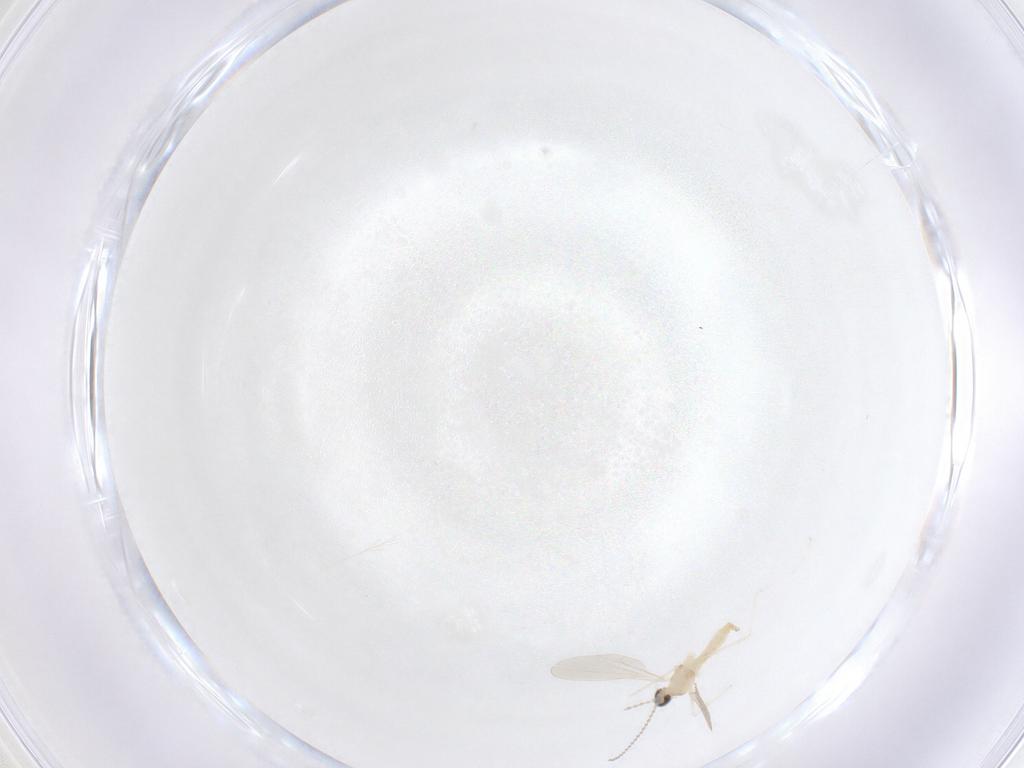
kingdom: Animalia
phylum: Arthropoda
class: Insecta
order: Diptera
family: Cecidomyiidae
